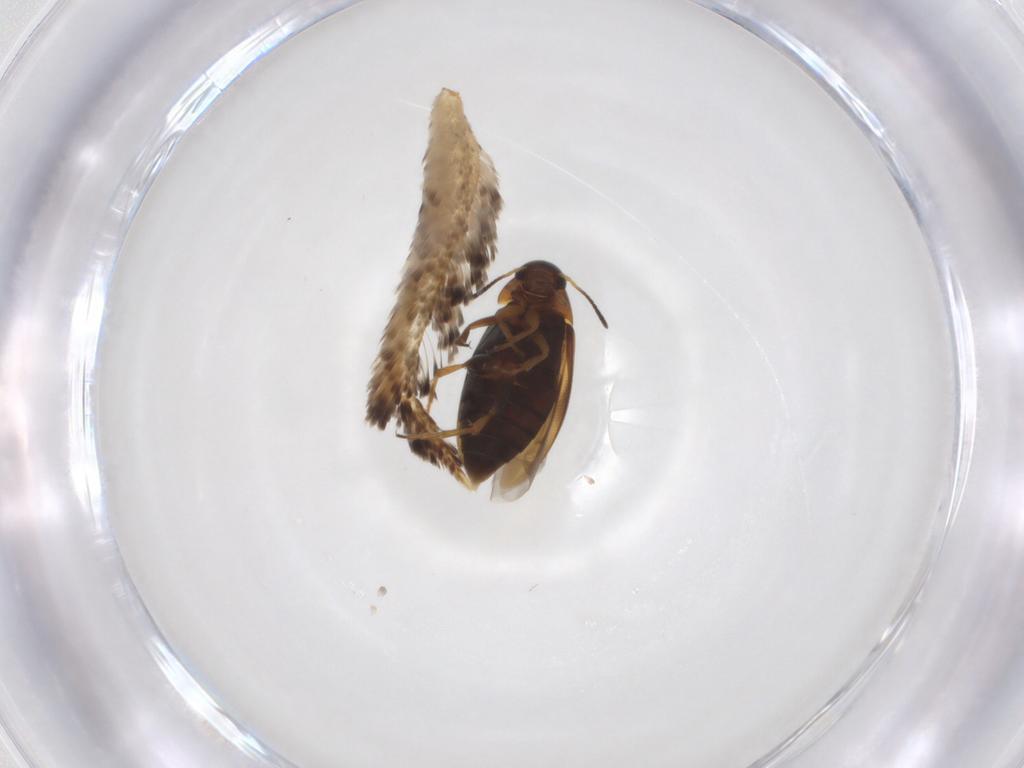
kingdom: Animalia
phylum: Arthropoda
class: Insecta
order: Coleoptera
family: Scraptiidae
